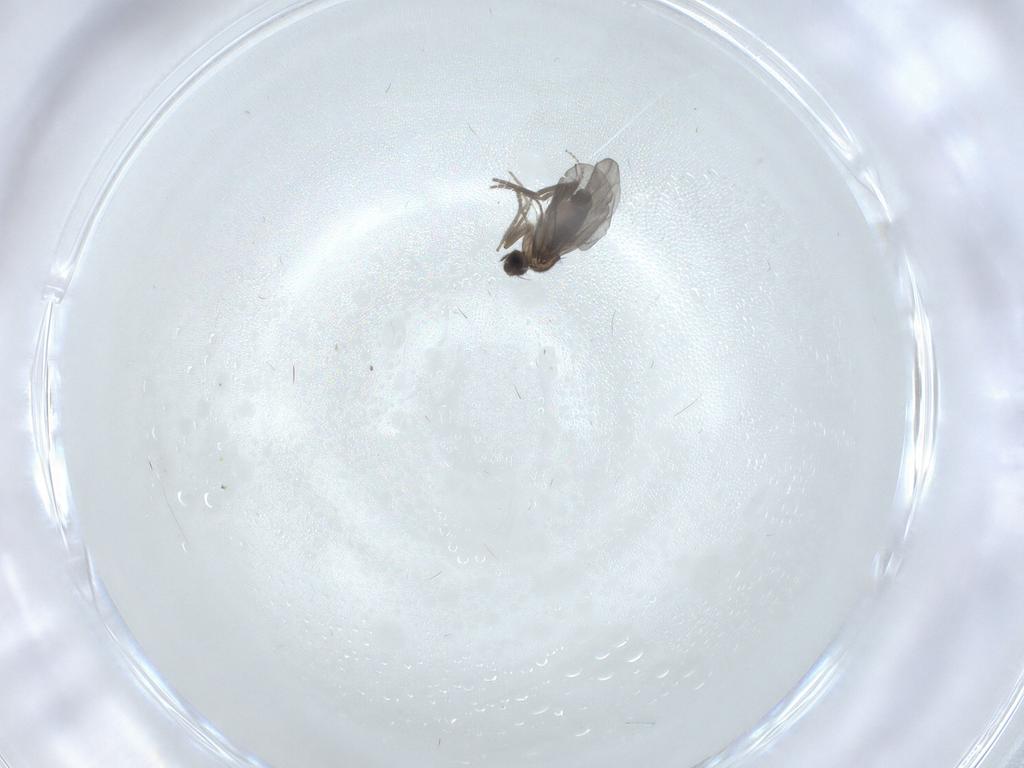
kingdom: Animalia
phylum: Arthropoda
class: Insecta
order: Diptera
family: Phoridae
